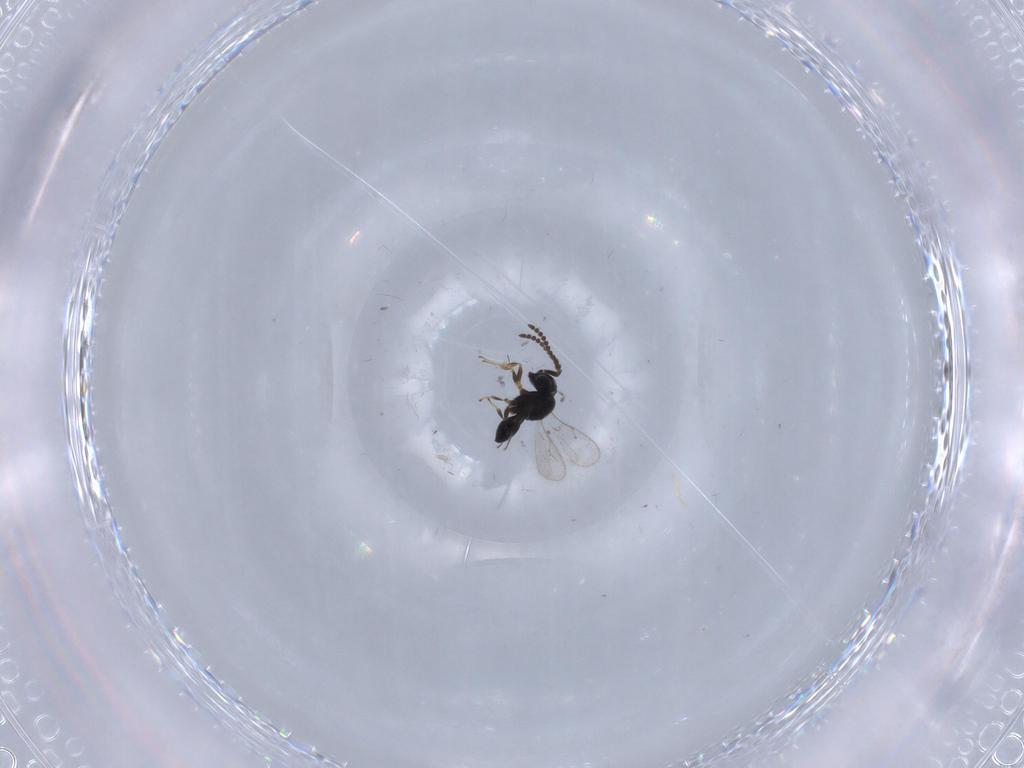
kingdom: Animalia
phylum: Arthropoda
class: Insecta
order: Hymenoptera
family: Scelionidae
